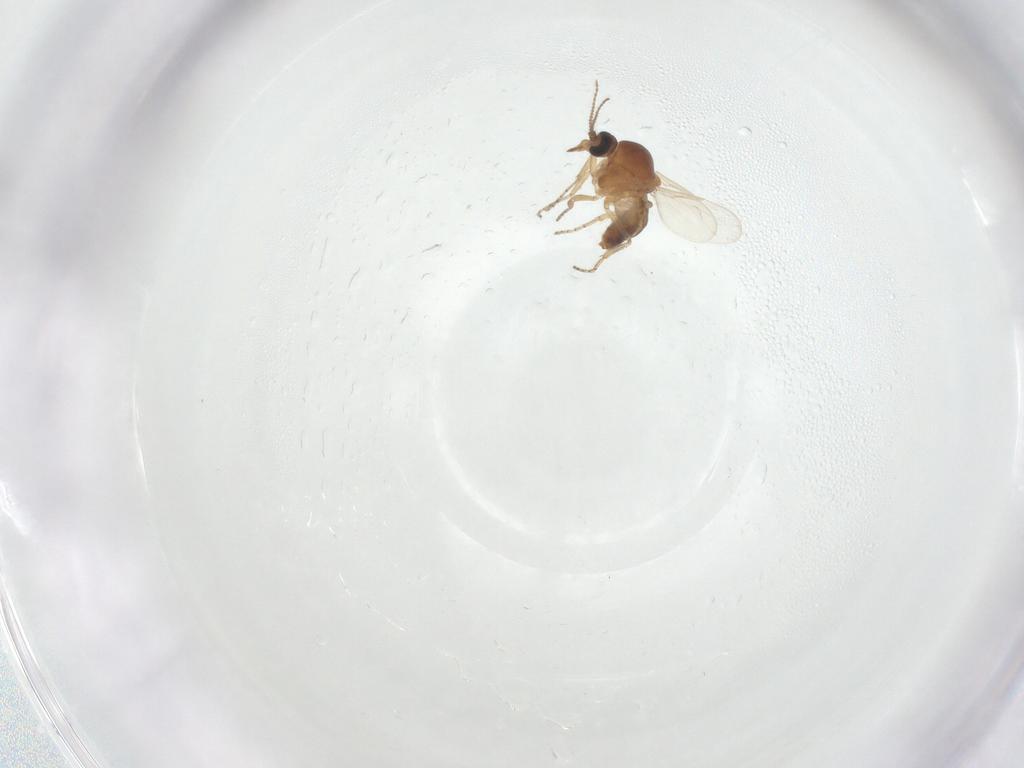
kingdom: Animalia
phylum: Arthropoda
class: Insecta
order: Diptera
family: Ceratopogonidae
